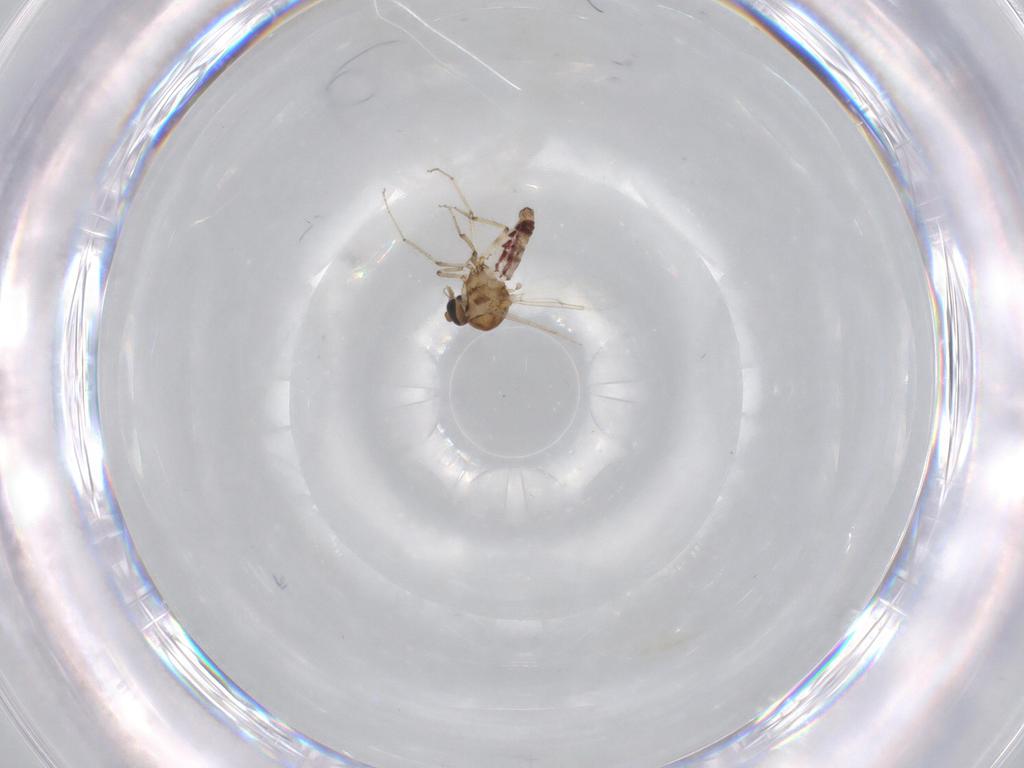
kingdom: Animalia
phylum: Arthropoda
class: Insecta
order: Diptera
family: Ceratopogonidae
